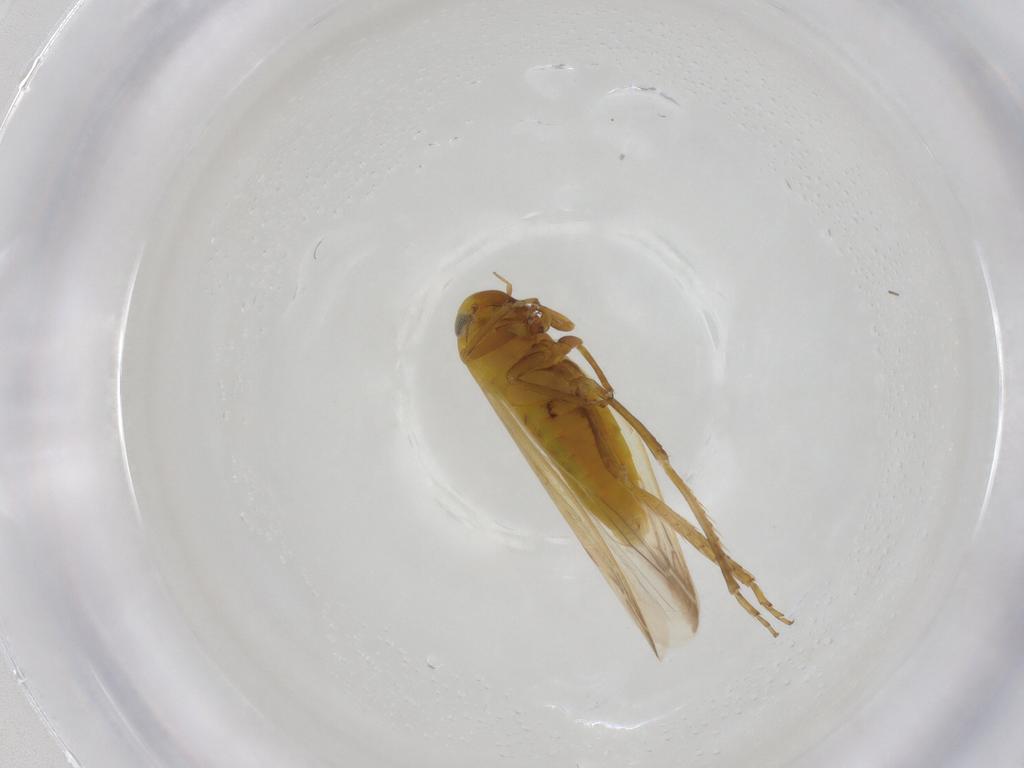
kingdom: Animalia
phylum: Arthropoda
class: Insecta
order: Hemiptera
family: Cicadellidae
